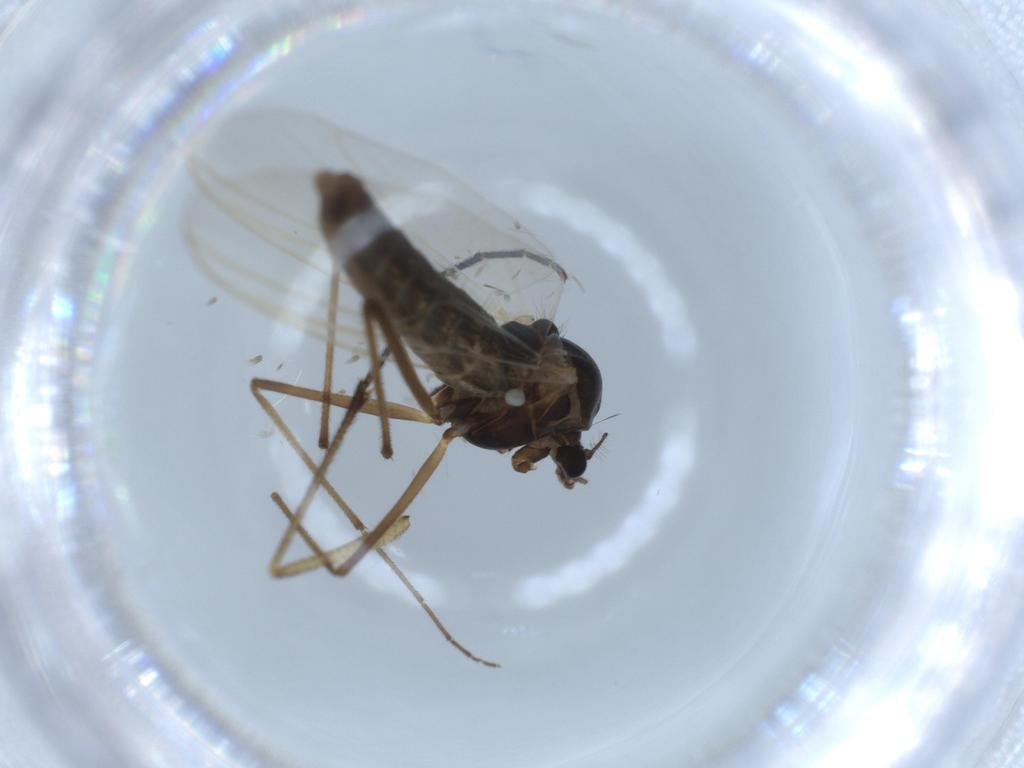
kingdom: Animalia
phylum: Arthropoda
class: Insecta
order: Diptera
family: Chironomidae
